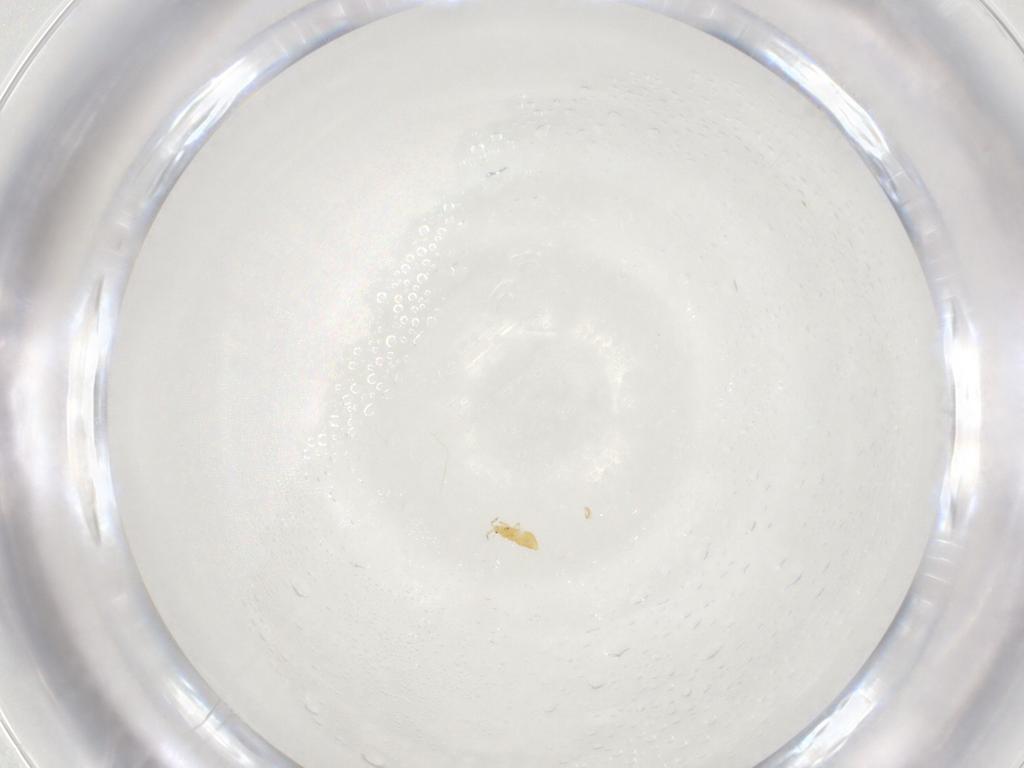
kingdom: Animalia
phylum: Arthropoda
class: Insecta
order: Thysanoptera
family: Thripidae
